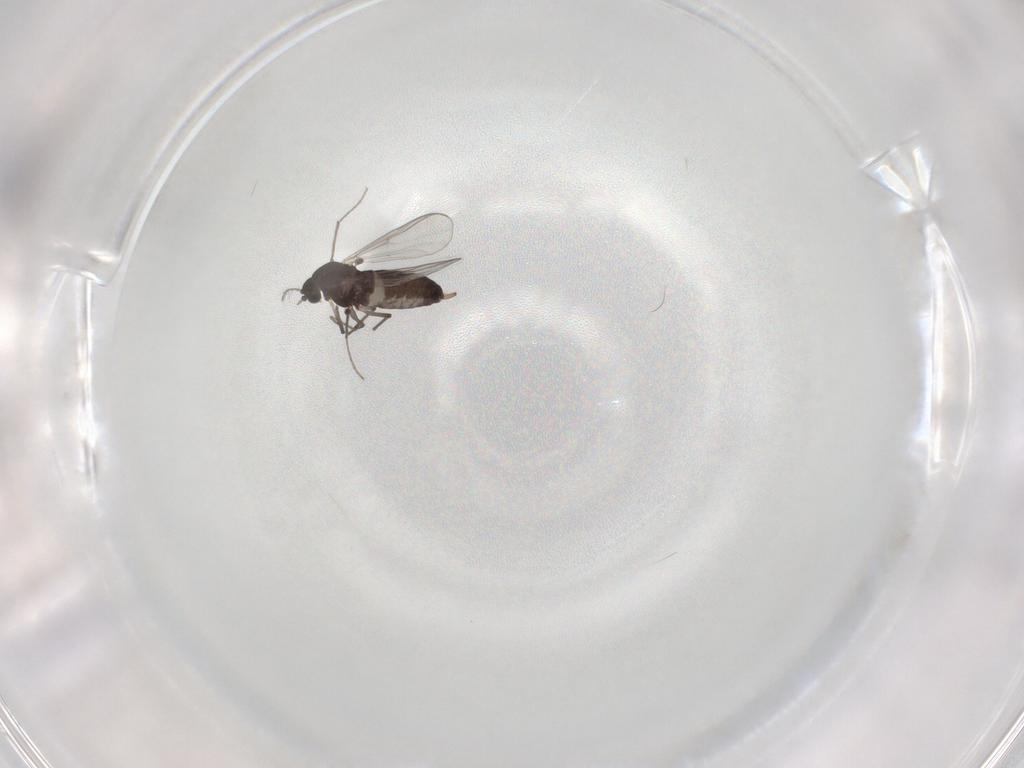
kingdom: Animalia
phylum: Arthropoda
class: Insecta
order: Diptera
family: Chironomidae
